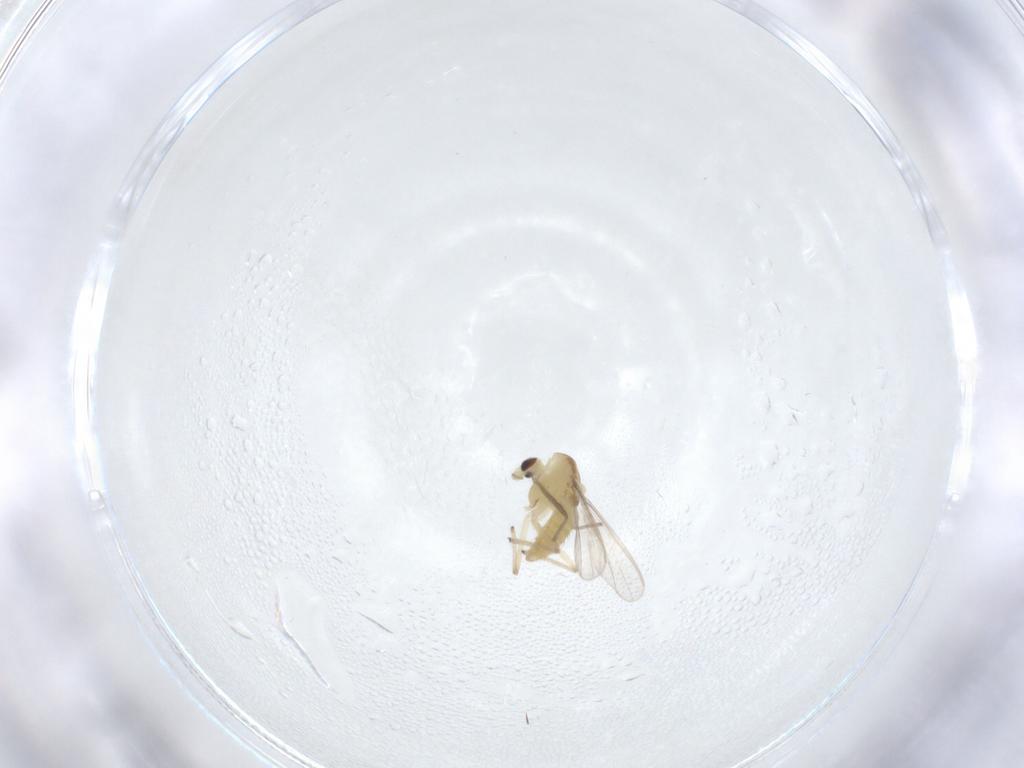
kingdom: Animalia
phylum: Arthropoda
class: Insecta
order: Diptera
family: Chironomidae
